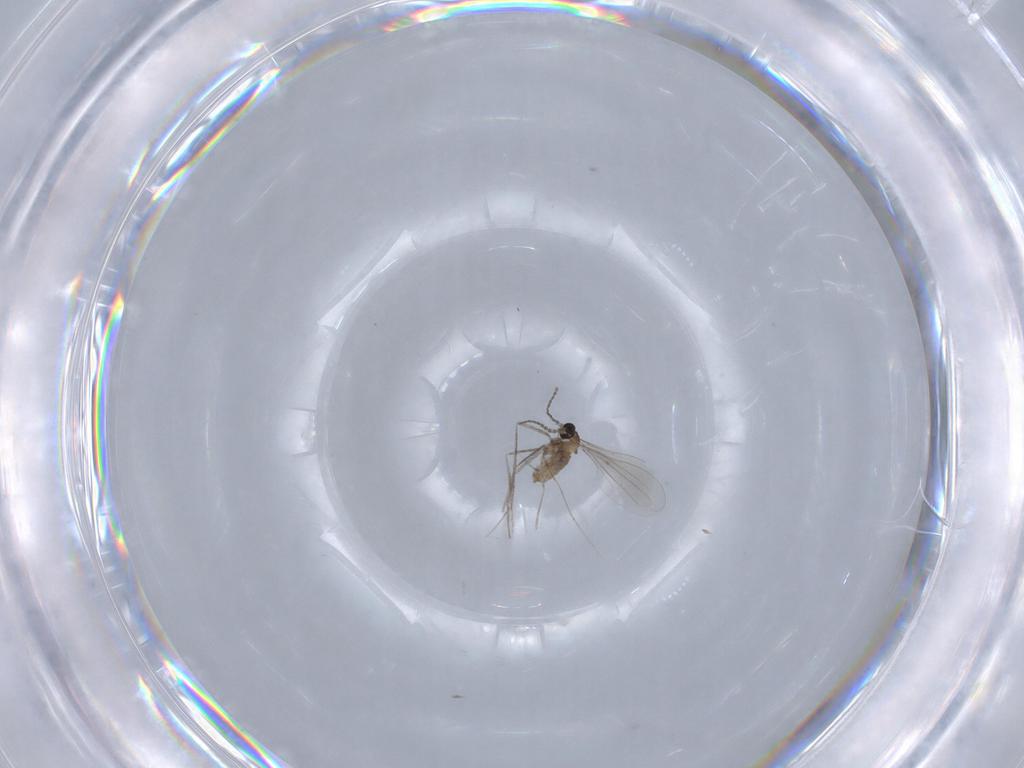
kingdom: Animalia
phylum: Arthropoda
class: Insecta
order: Diptera
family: Cecidomyiidae
